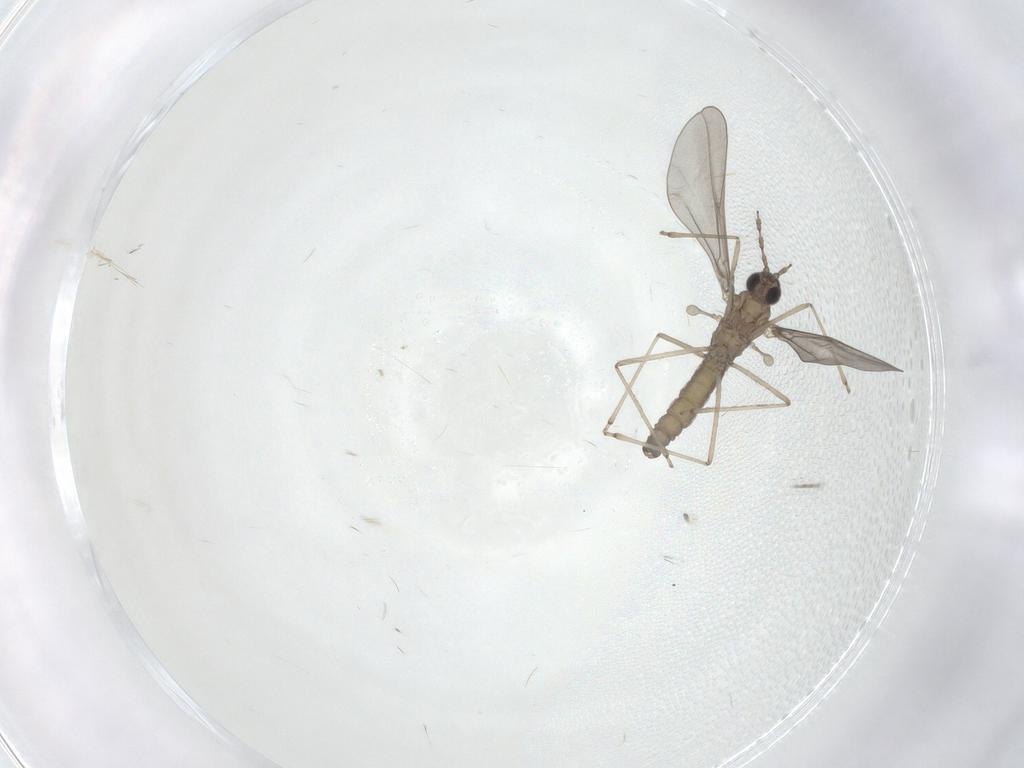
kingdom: Animalia
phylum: Arthropoda
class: Insecta
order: Diptera
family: Cecidomyiidae
